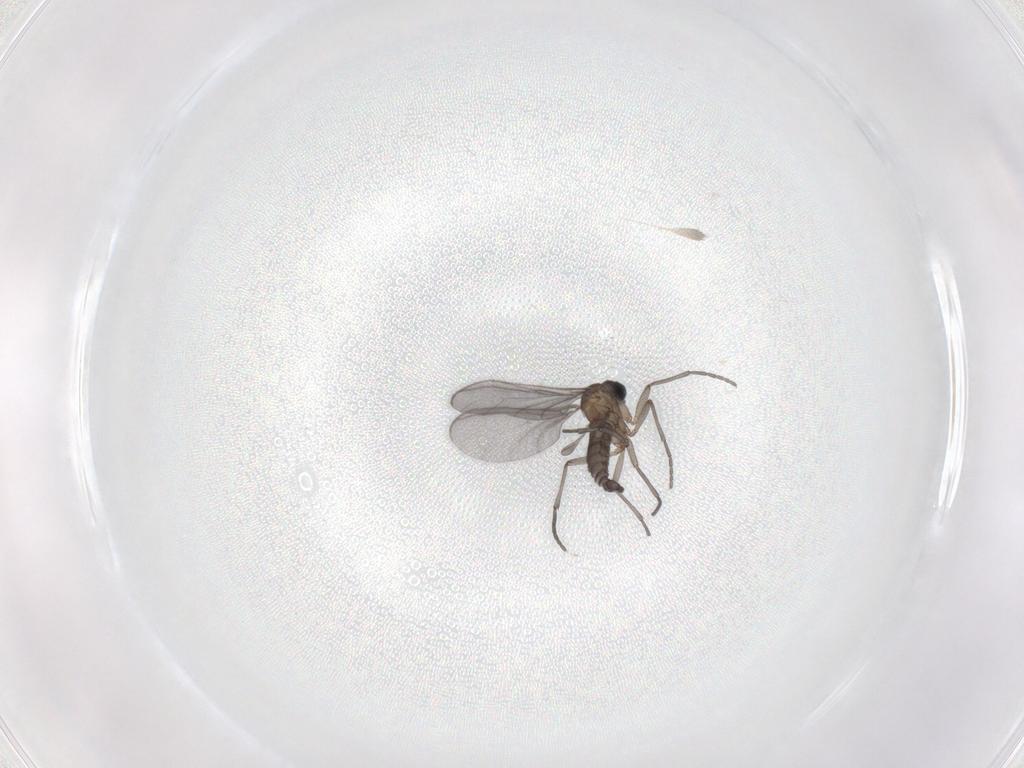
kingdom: Animalia
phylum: Arthropoda
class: Insecta
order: Diptera
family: Sciaridae
